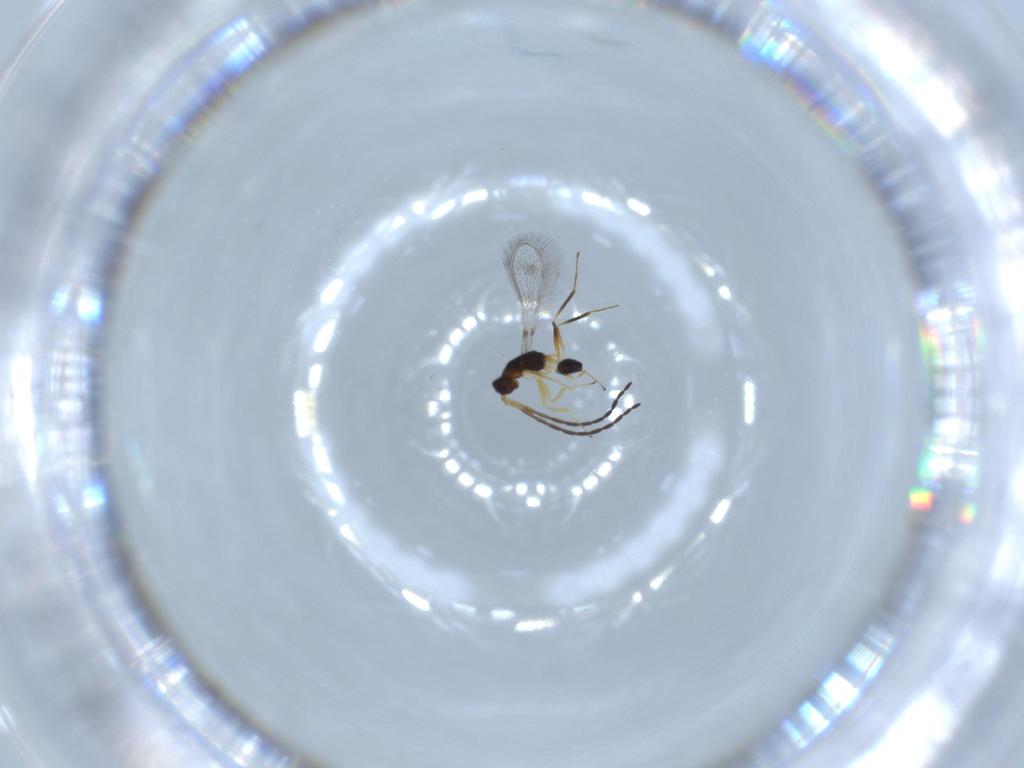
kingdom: Animalia
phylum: Arthropoda
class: Insecta
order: Hymenoptera
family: Mymaridae
